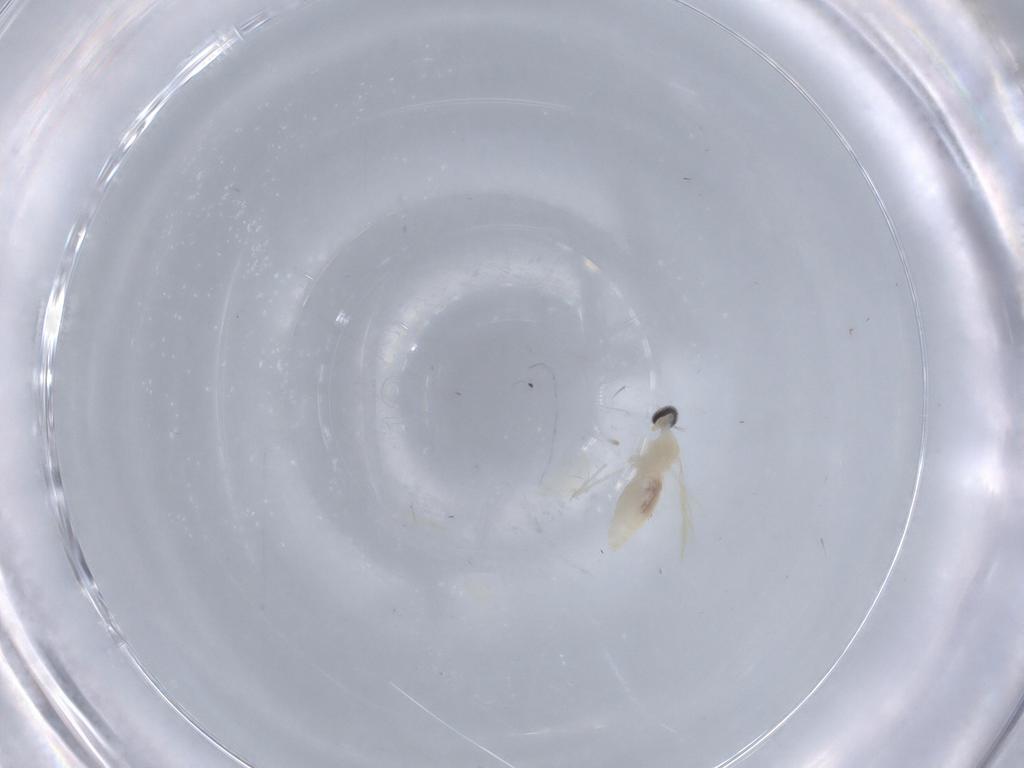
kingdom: Animalia
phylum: Arthropoda
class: Insecta
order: Diptera
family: Cecidomyiidae
